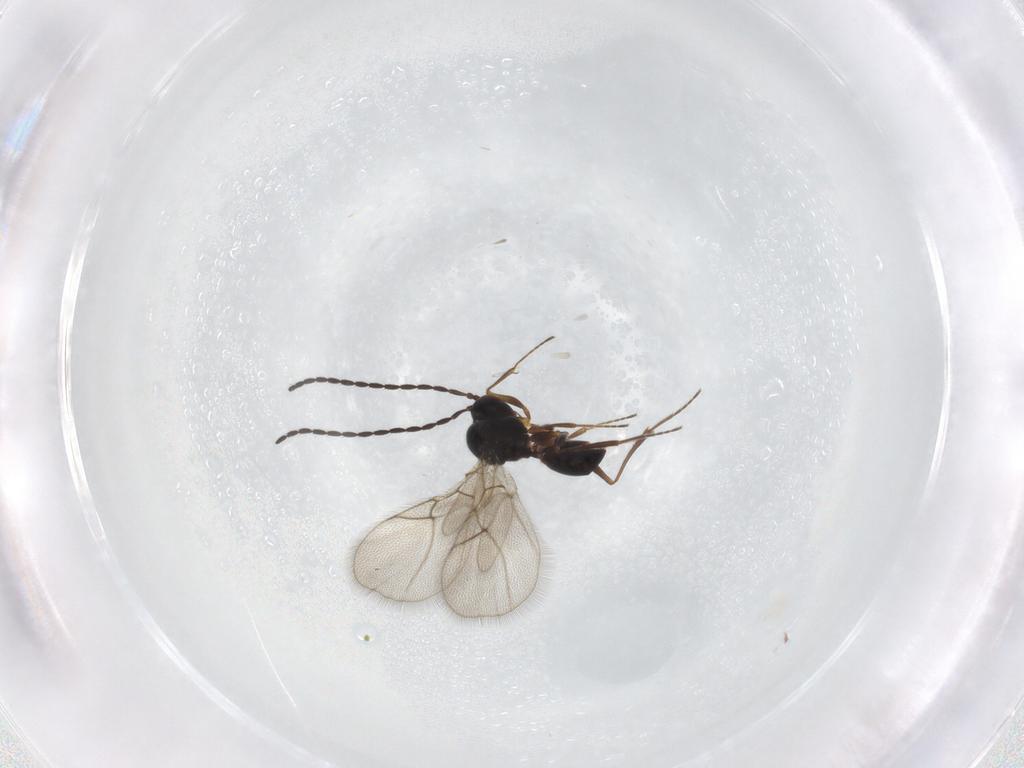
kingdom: Animalia
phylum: Arthropoda
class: Insecta
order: Hymenoptera
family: Figitidae
